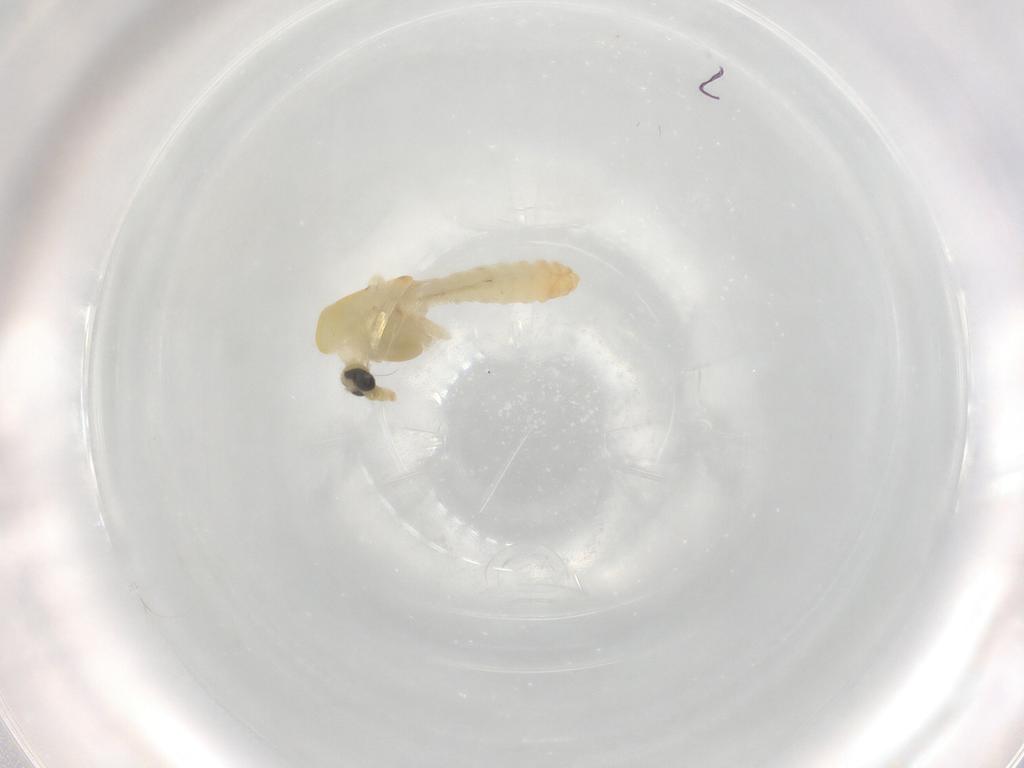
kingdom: Animalia
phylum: Arthropoda
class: Insecta
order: Diptera
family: Chironomidae
